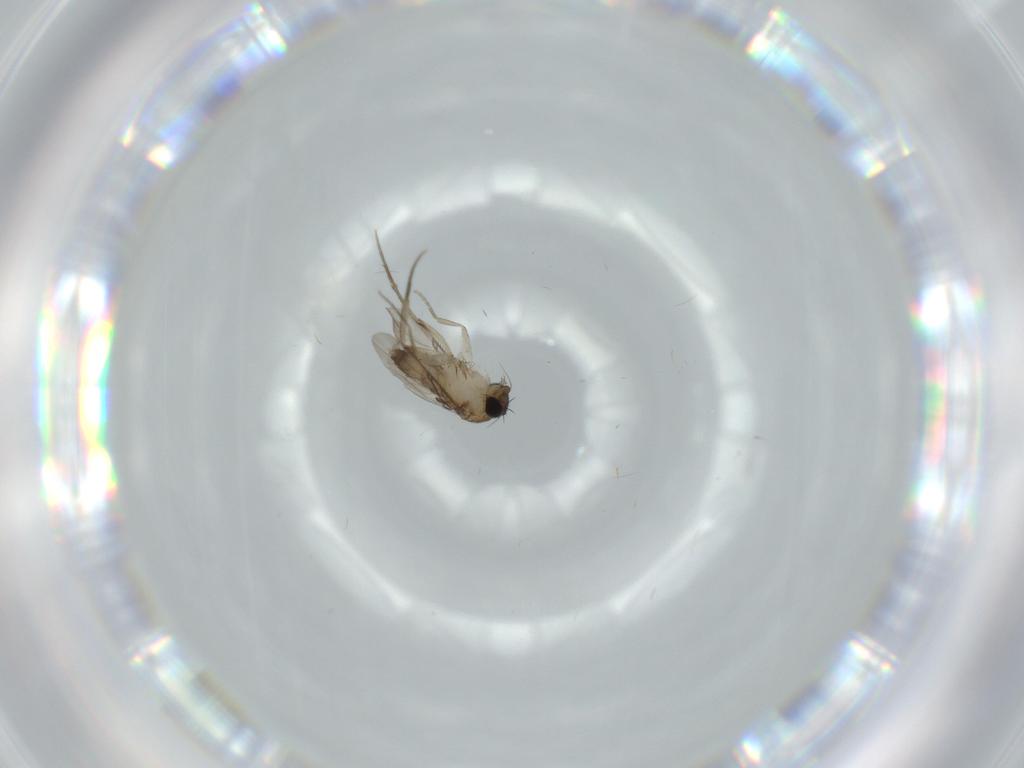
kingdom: Animalia
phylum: Arthropoda
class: Insecta
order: Diptera
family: Phoridae
